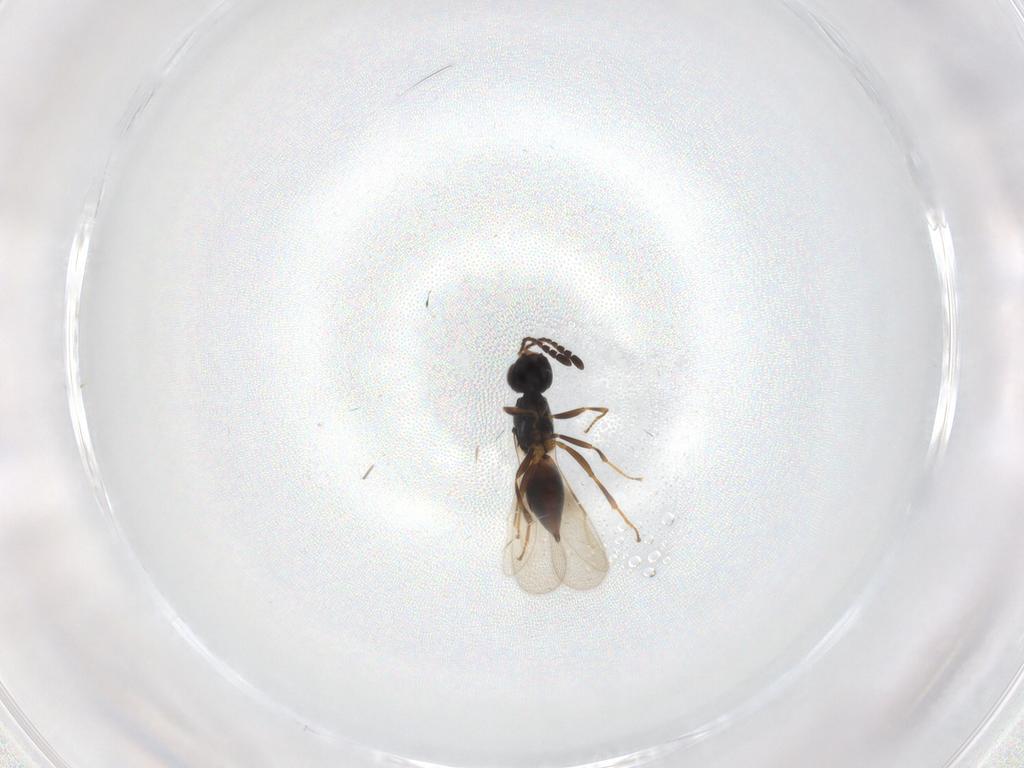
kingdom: Animalia
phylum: Arthropoda
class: Insecta
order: Hymenoptera
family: Ceraphronidae
